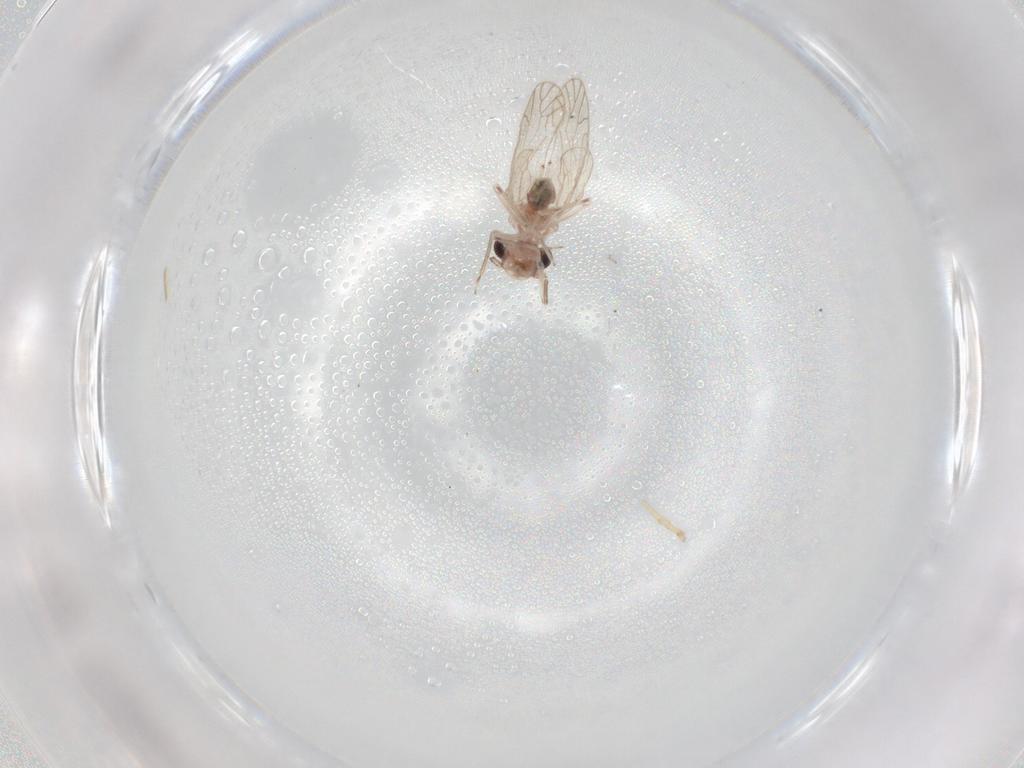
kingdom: Animalia
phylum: Arthropoda
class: Insecta
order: Psocodea
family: Caeciliusidae
